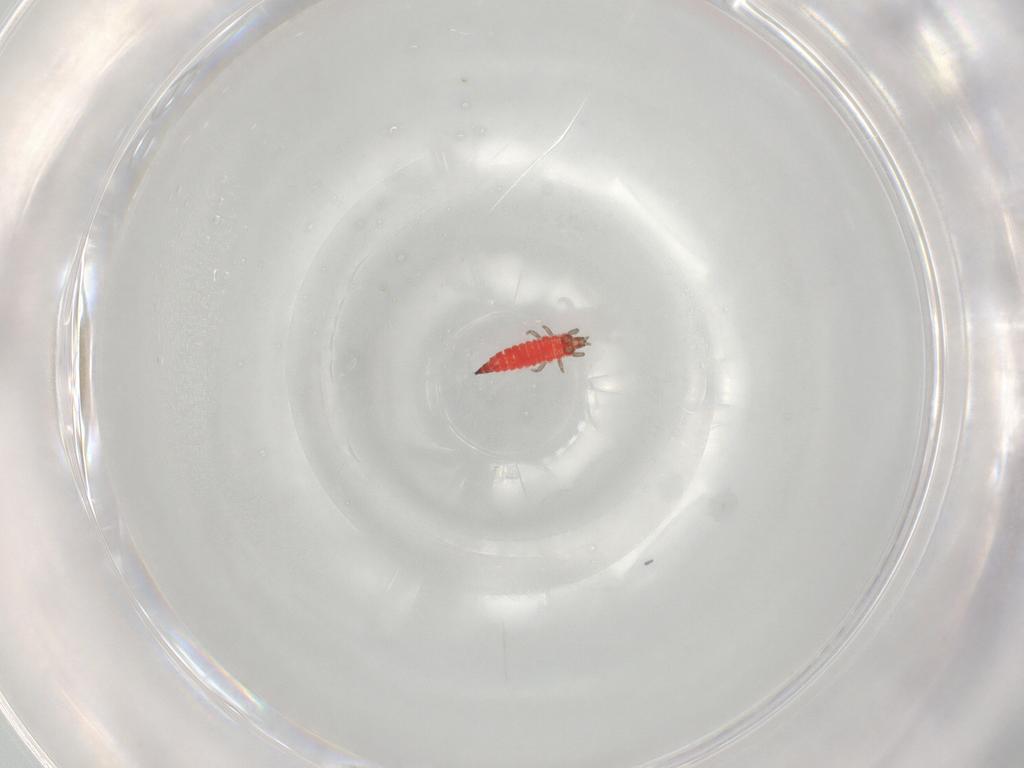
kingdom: Animalia
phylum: Arthropoda
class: Insecta
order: Thysanoptera
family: Phlaeothripidae
